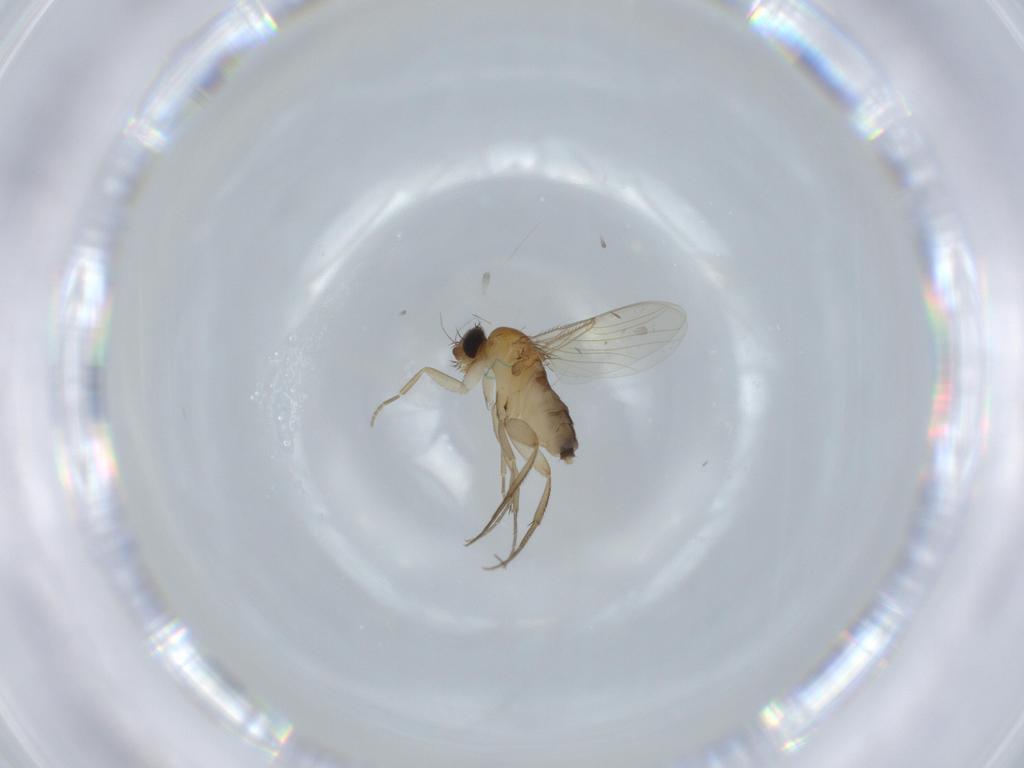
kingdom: Animalia
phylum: Arthropoda
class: Insecta
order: Diptera
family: Phoridae
